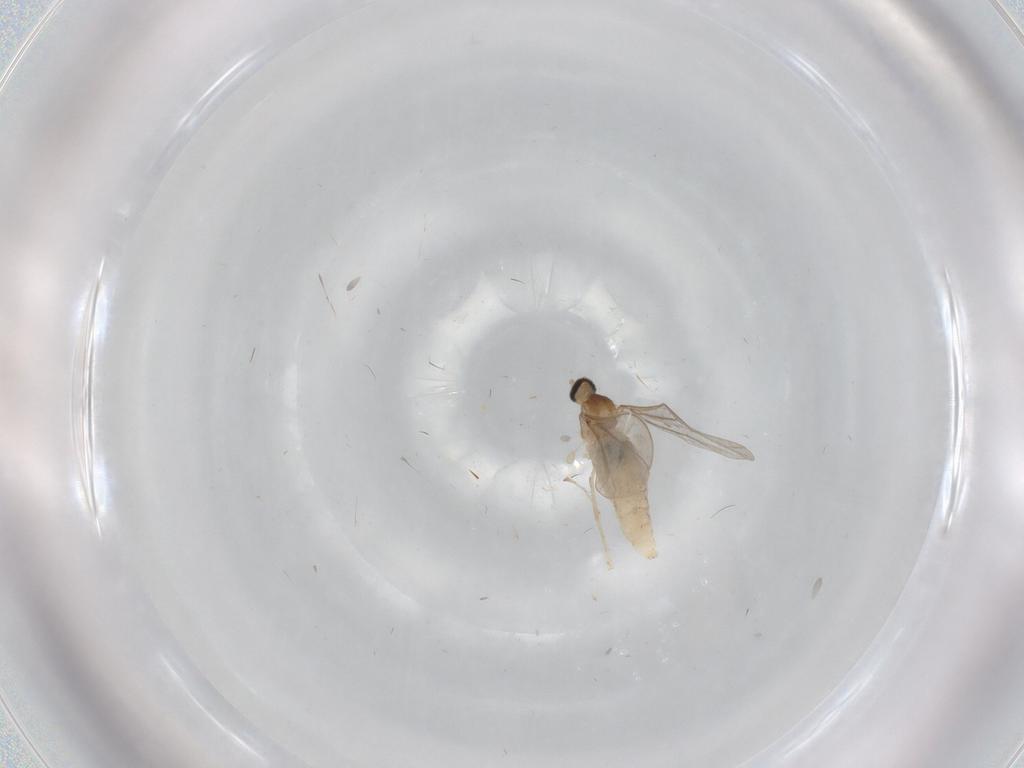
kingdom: Animalia
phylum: Arthropoda
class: Insecta
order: Diptera
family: Cecidomyiidae
